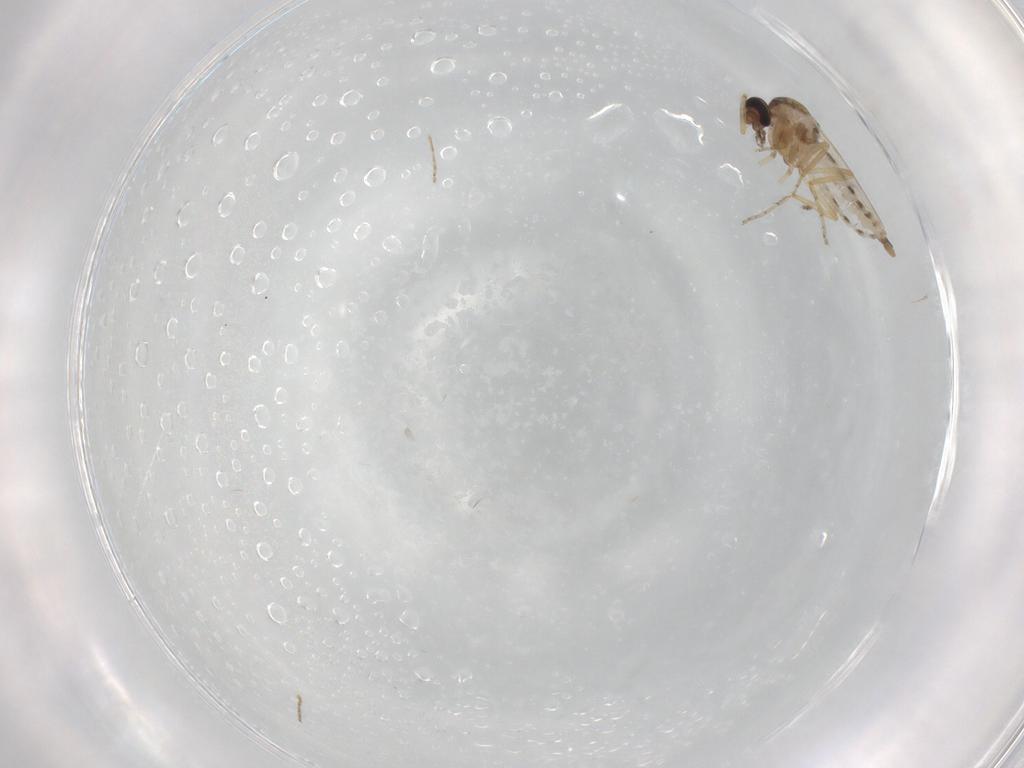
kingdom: Animalia
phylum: Arthropoda
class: Insecta
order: Diptera
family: Ceratopogonidae
